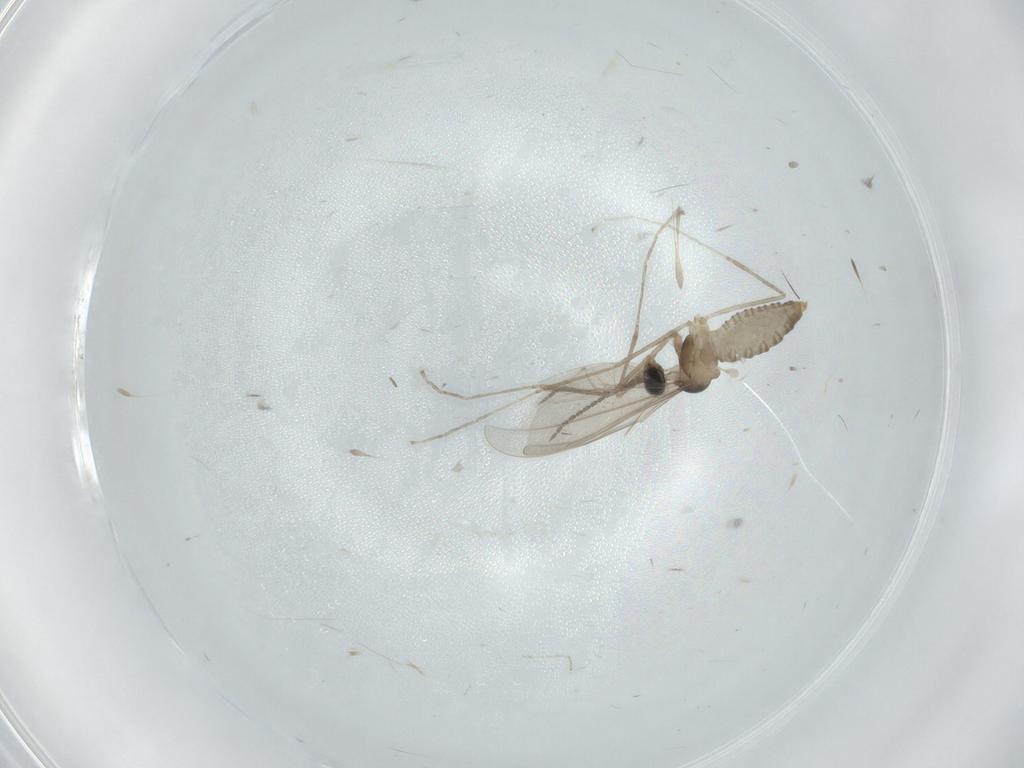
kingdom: Animalia
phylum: Arthropoda
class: Insecta
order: Diptera
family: Cecidomyiidae
